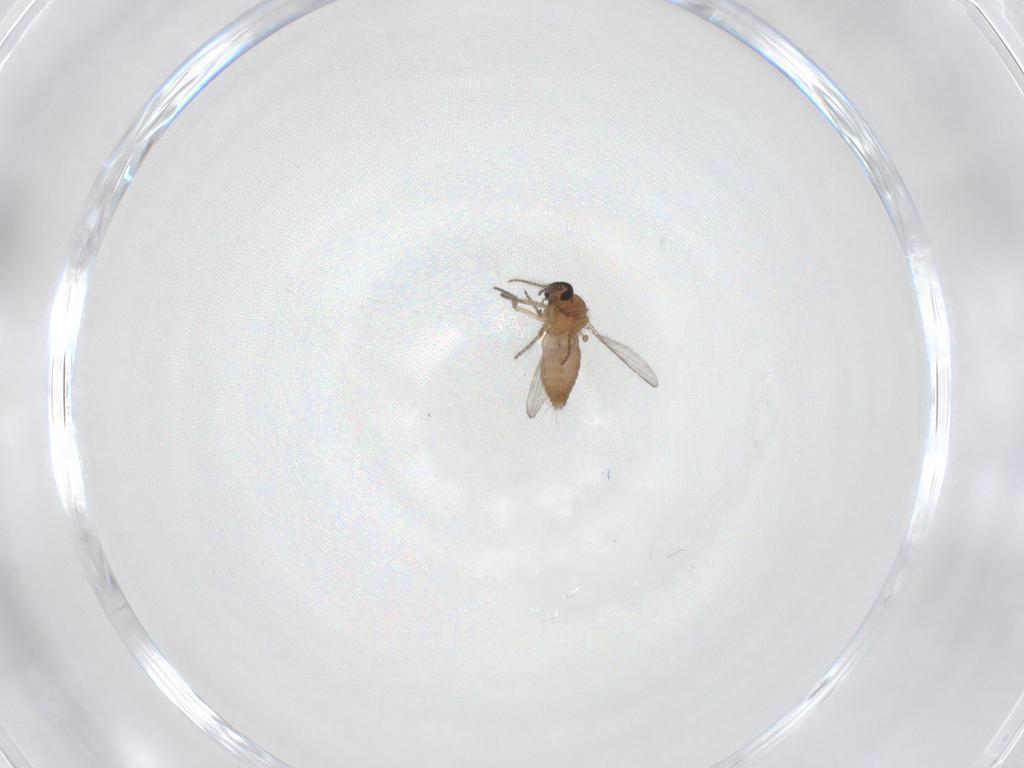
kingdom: Animalia
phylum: Arthropoda
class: Insecta
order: Diptera
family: Ceratopogonidae
